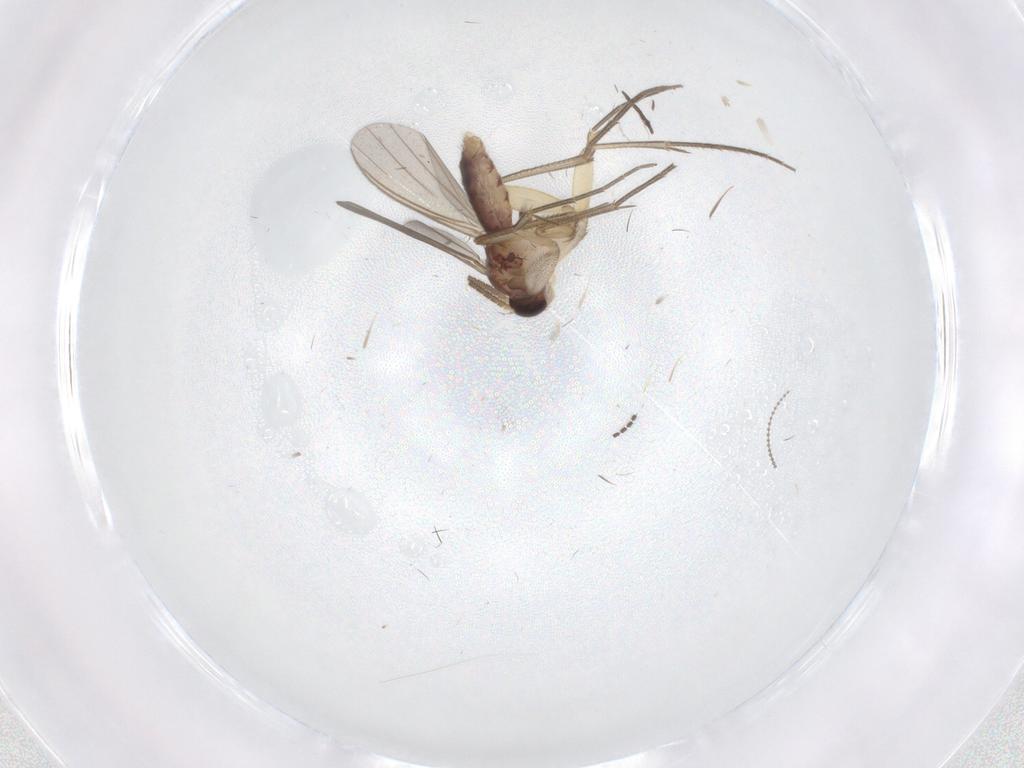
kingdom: Animalia
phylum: Arthropoda
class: Insecta
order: Diptera
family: Mycetophilidae
